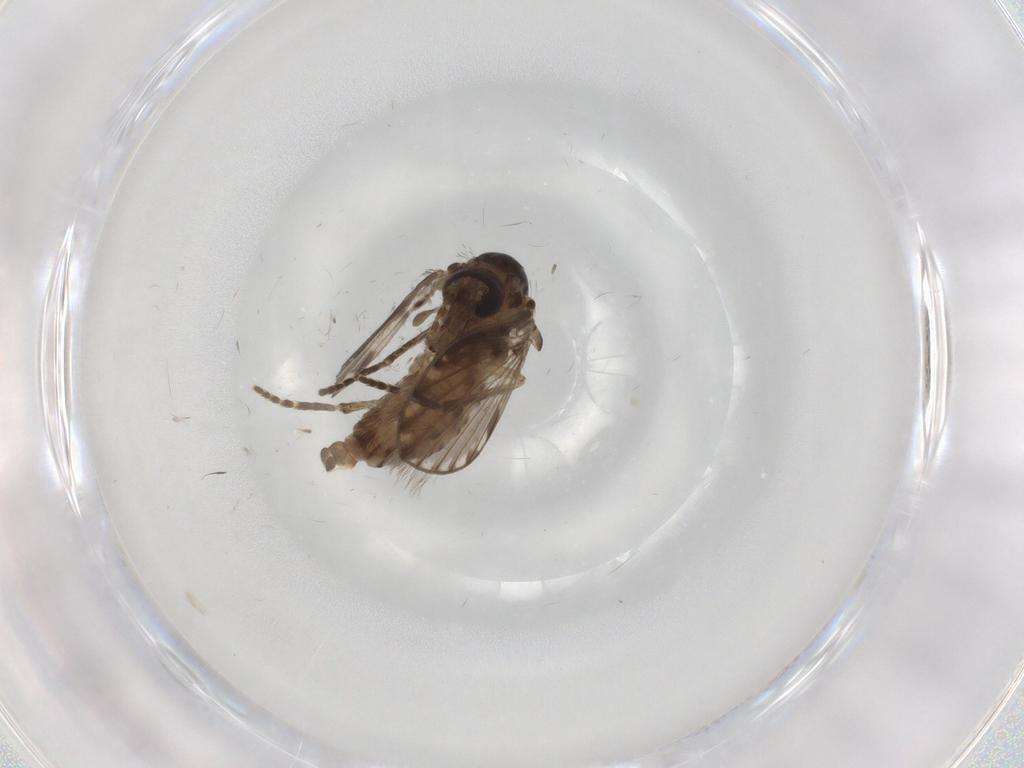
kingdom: Animalia
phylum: Arthropoda
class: Insecta
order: Diptera
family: Psychodidae
